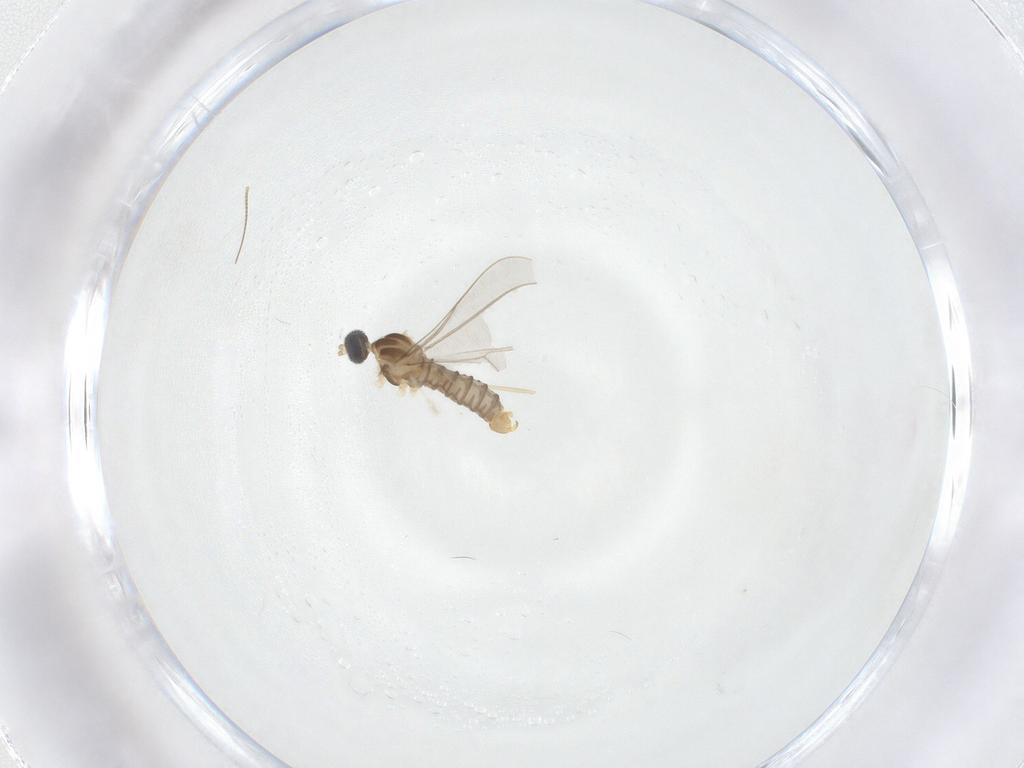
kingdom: Animalia
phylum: Arthropoda
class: Insecta
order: Diptera
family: Chironomidae
